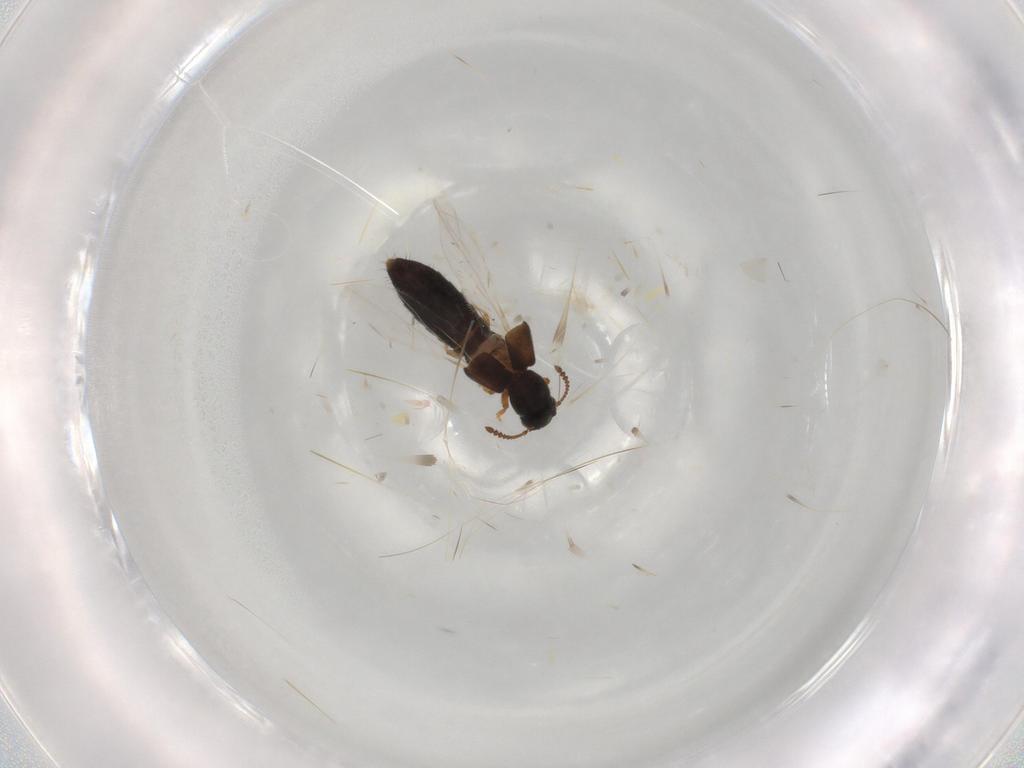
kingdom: Animalia
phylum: Arthropoda
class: Insecta
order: Coleoptera
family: Staphylinidae
